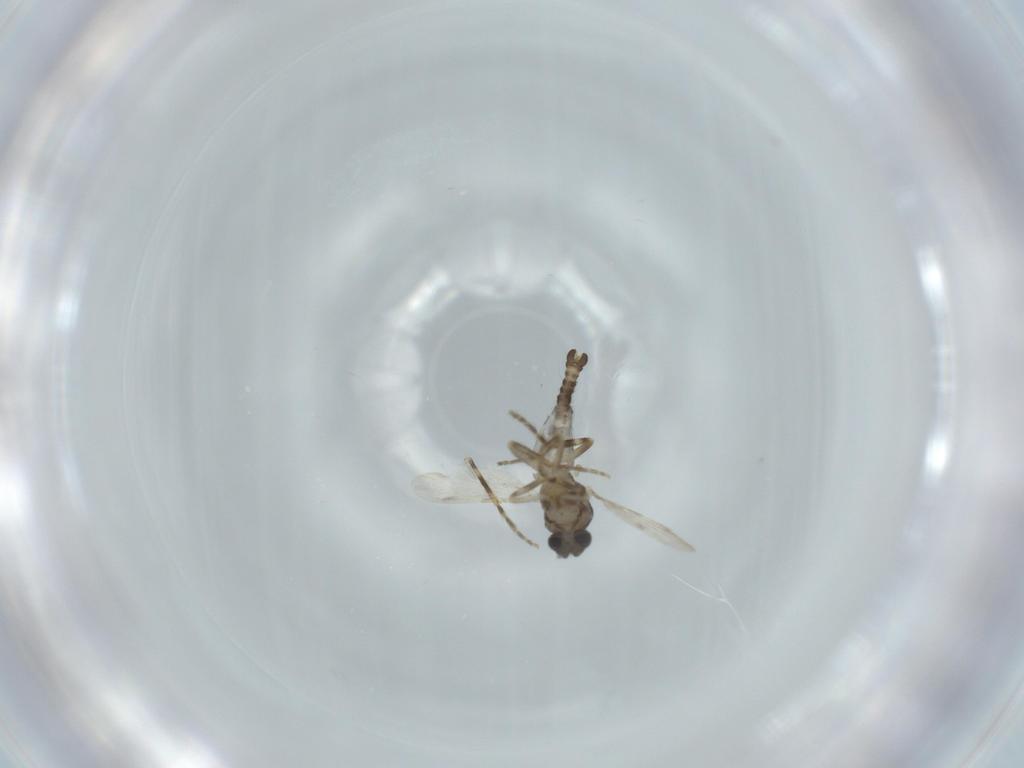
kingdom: Animalia
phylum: Arthropoda
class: Insecta
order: Diptera
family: Ceratopogonidae
